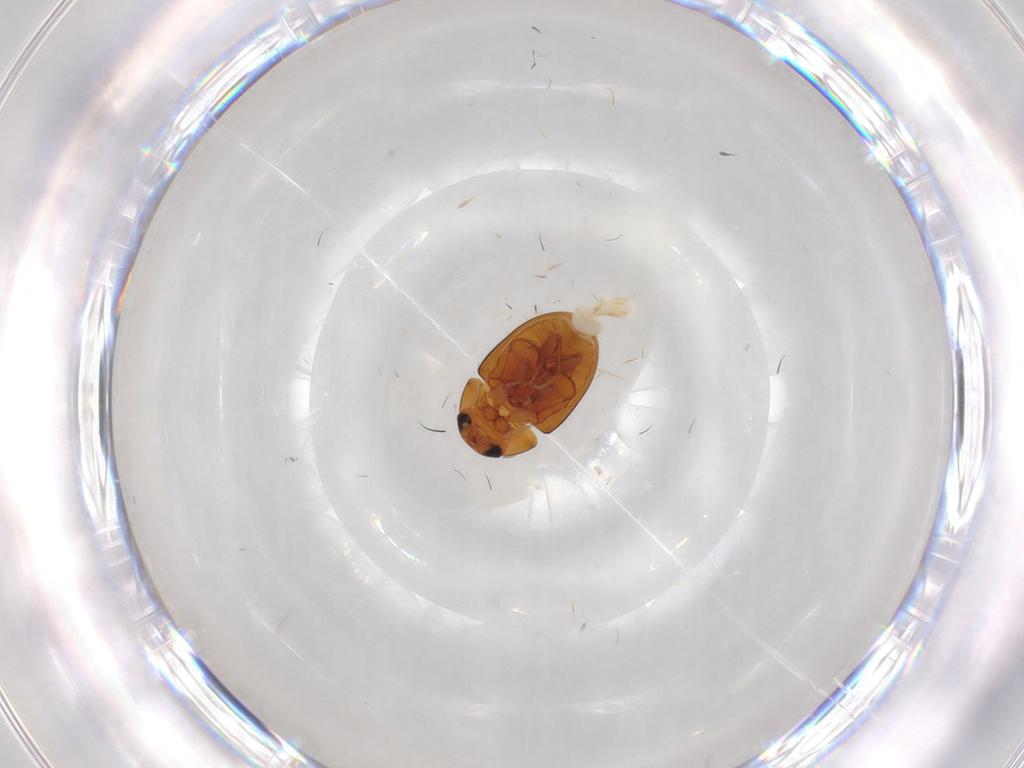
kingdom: Animalia
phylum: Arthropoda
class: Insecta
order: Coleoptera
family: Phalacridae
